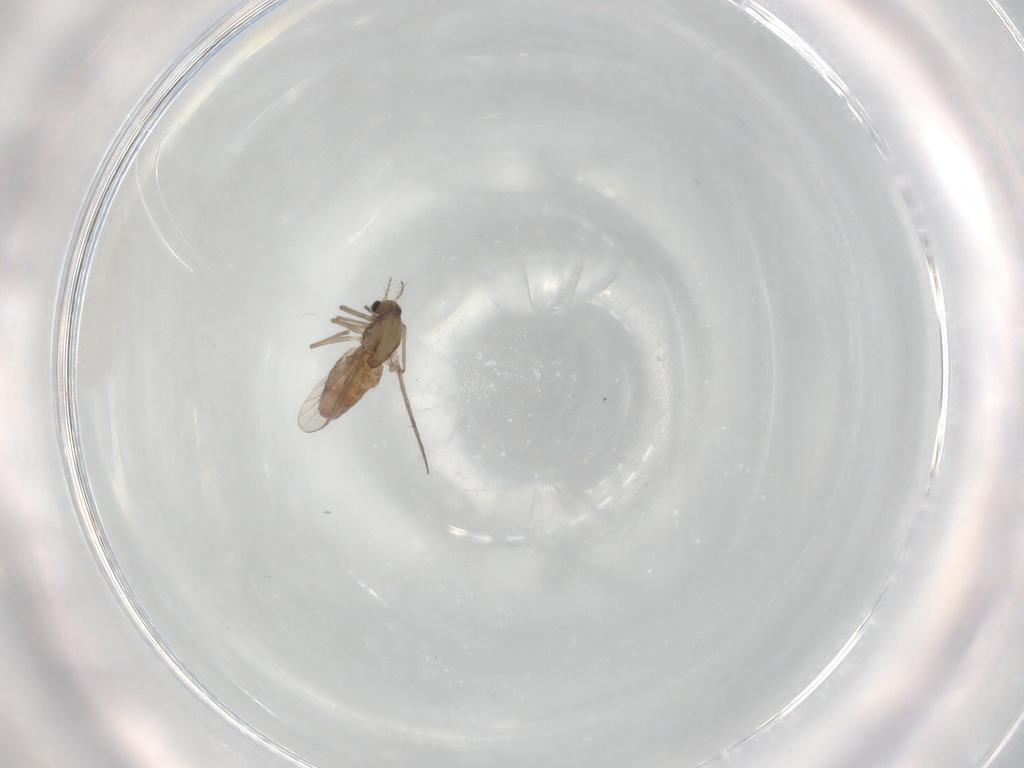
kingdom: Animalia
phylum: Arthropoda
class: Insecta
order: Diptera
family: Chironomidae
